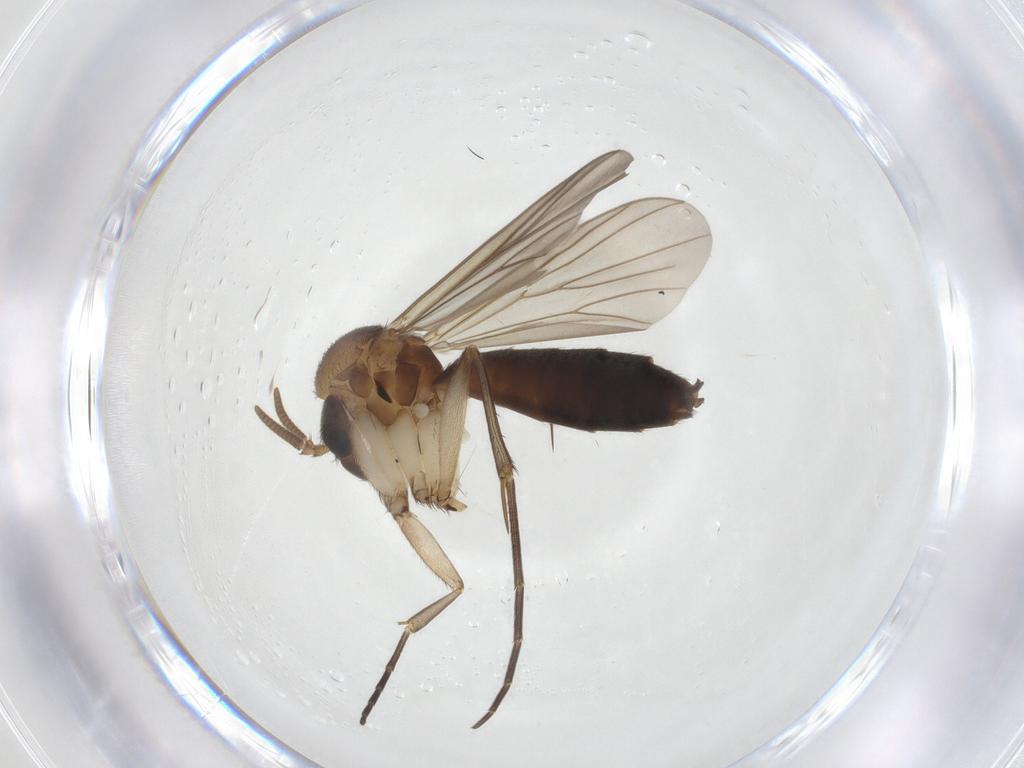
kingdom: Animalia
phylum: Arthropoda
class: Insecta
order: Diptera
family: Mycetophilidae
